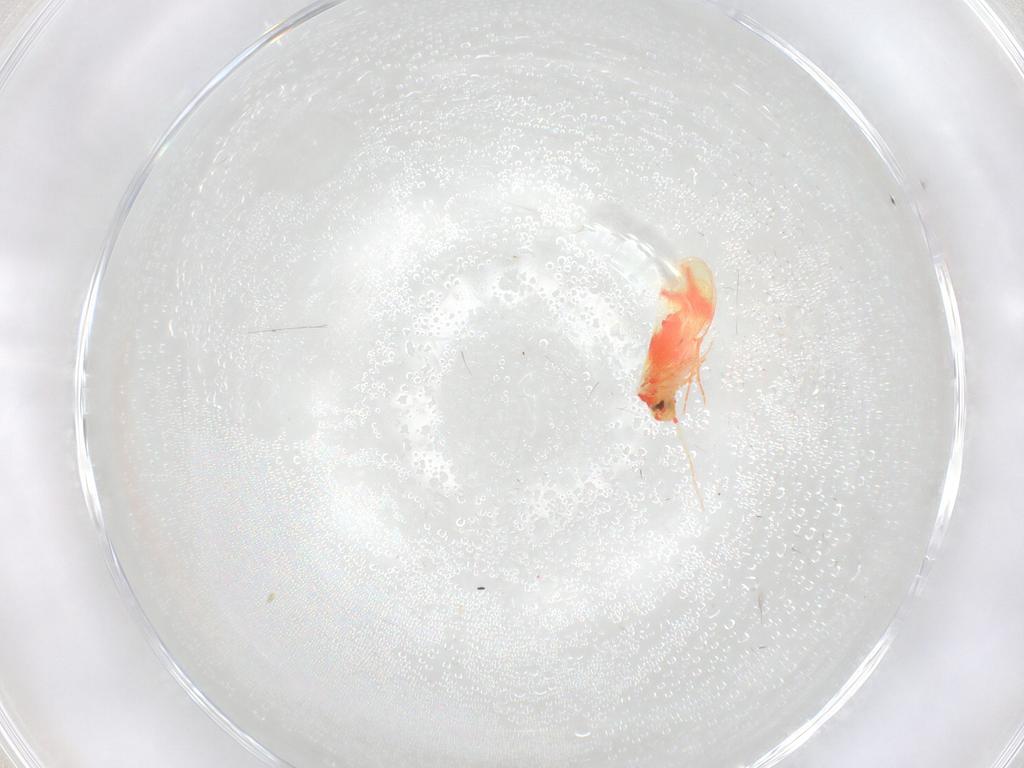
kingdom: Animalia
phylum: Arthropoda
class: Insecta
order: Hemiptera
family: Aleyrodidae
